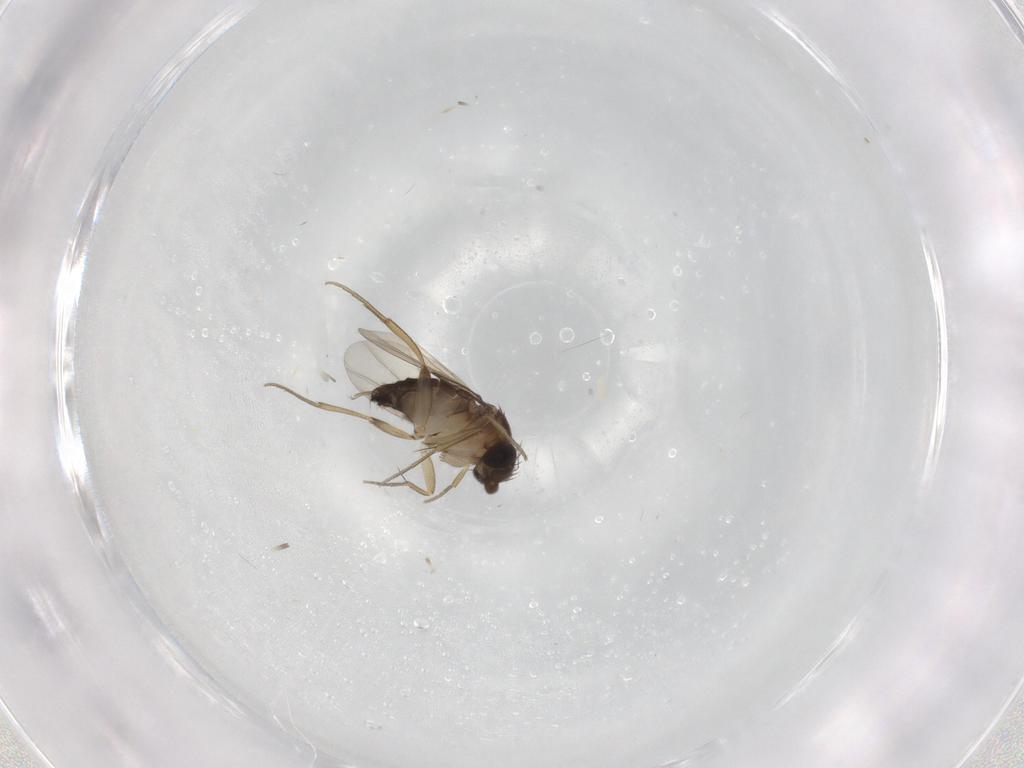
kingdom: Animalia
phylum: Arthropoda
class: Insecta
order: Diptera
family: Phoridae
